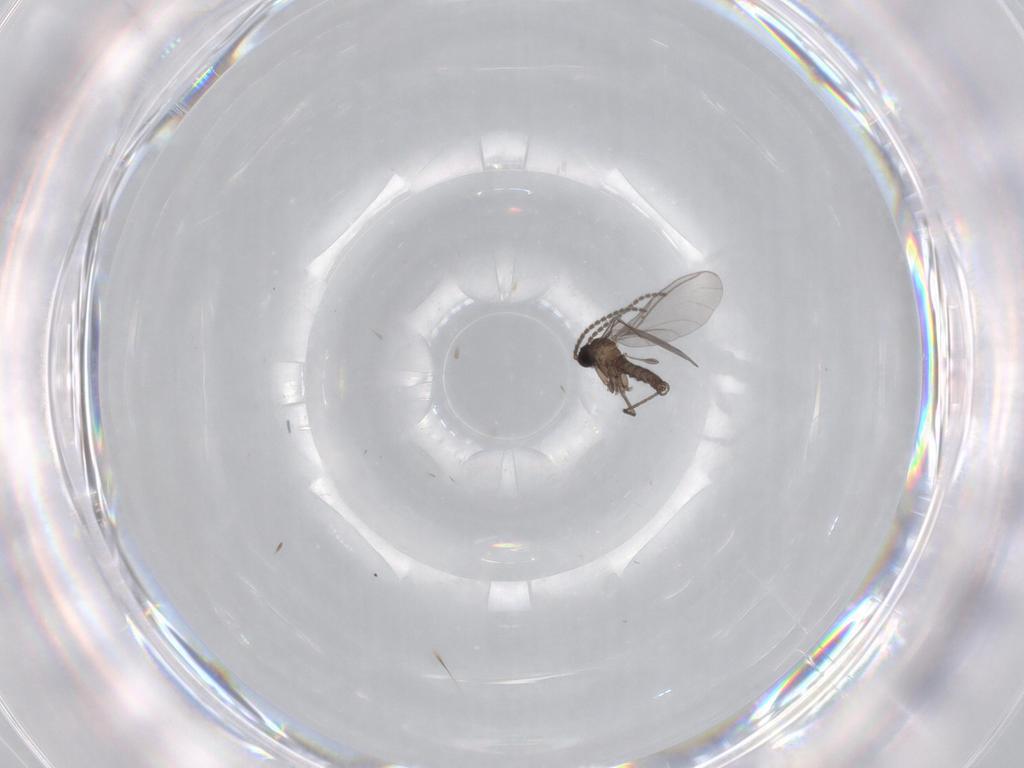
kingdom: Animalia
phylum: Arthropoda
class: Insecta
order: Diptera
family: Sciaridae
